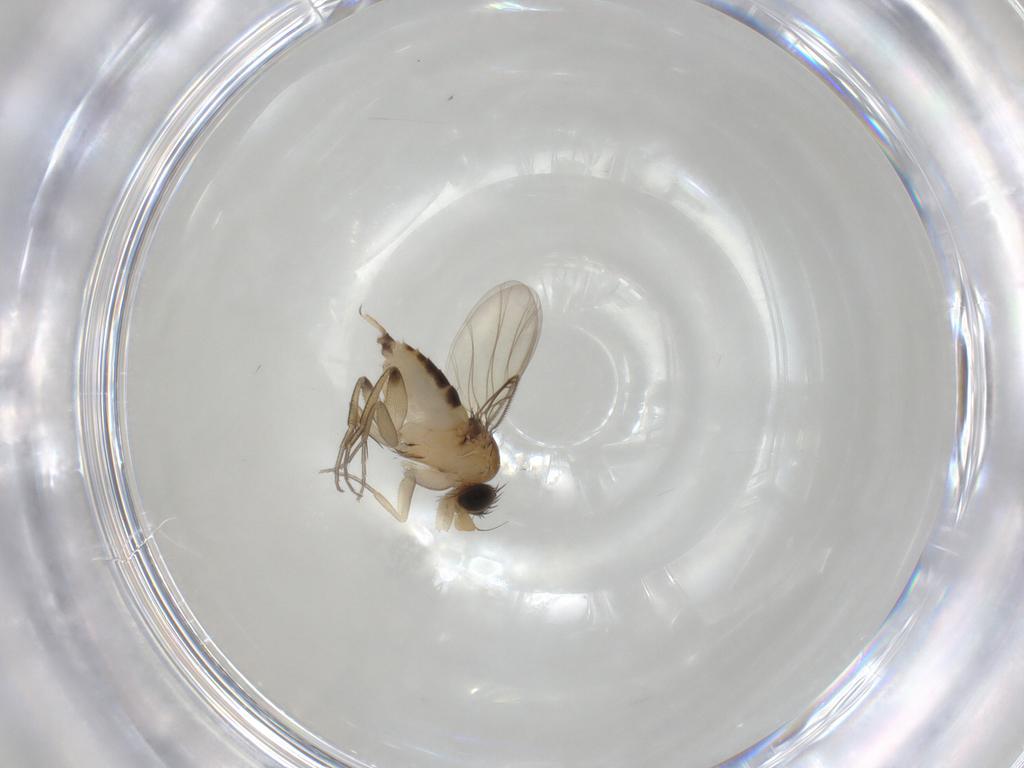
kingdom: Animalia
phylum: Arthropoda
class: Insecta
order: Diptera
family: Phoridae
